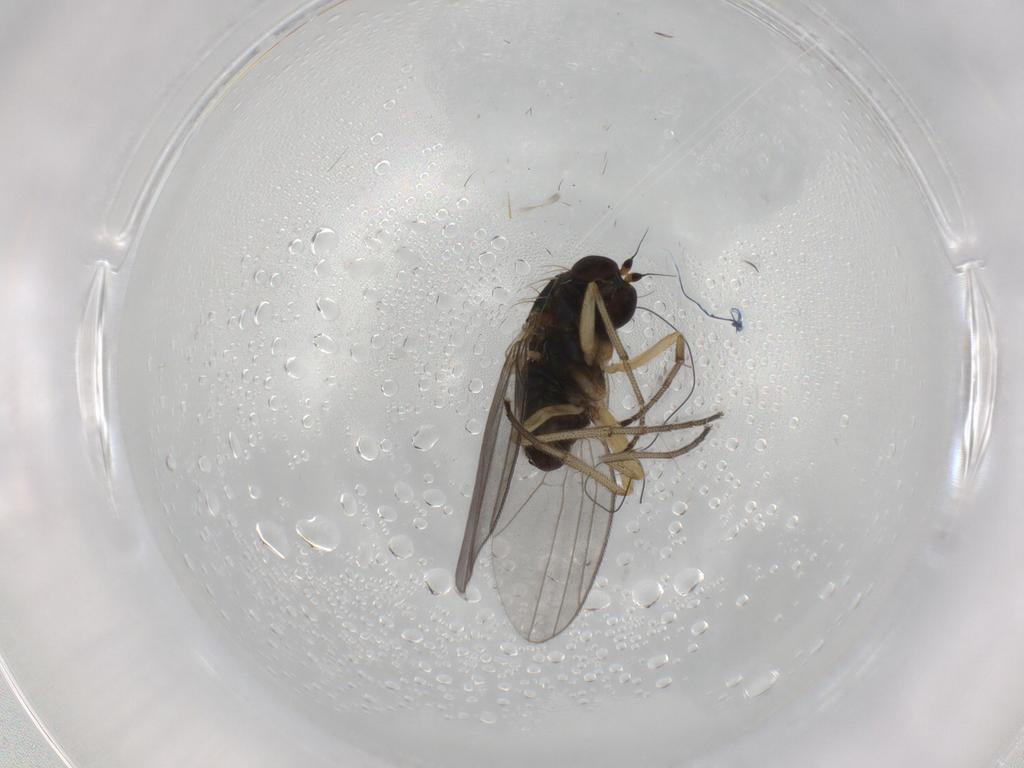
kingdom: Animalia
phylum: Arthropoda
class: Insecta
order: Diptera
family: Dolichopodidae
